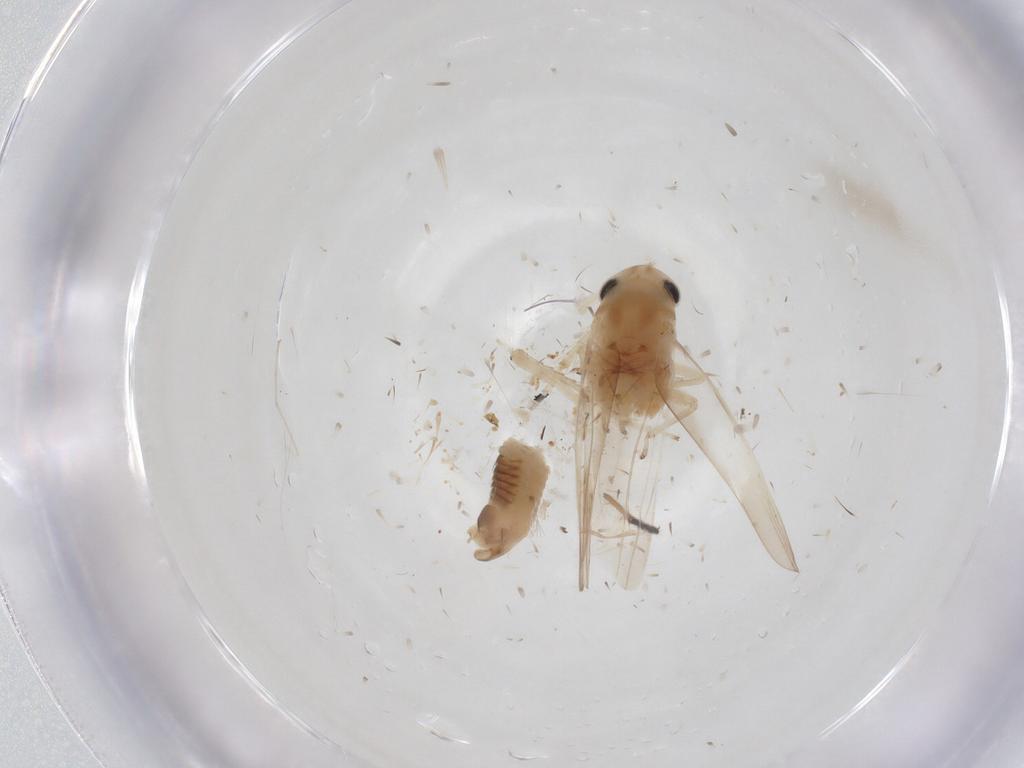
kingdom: Animalia
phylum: Arthropoda
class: Insecta
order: Hemiptera
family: Cicadellidae
